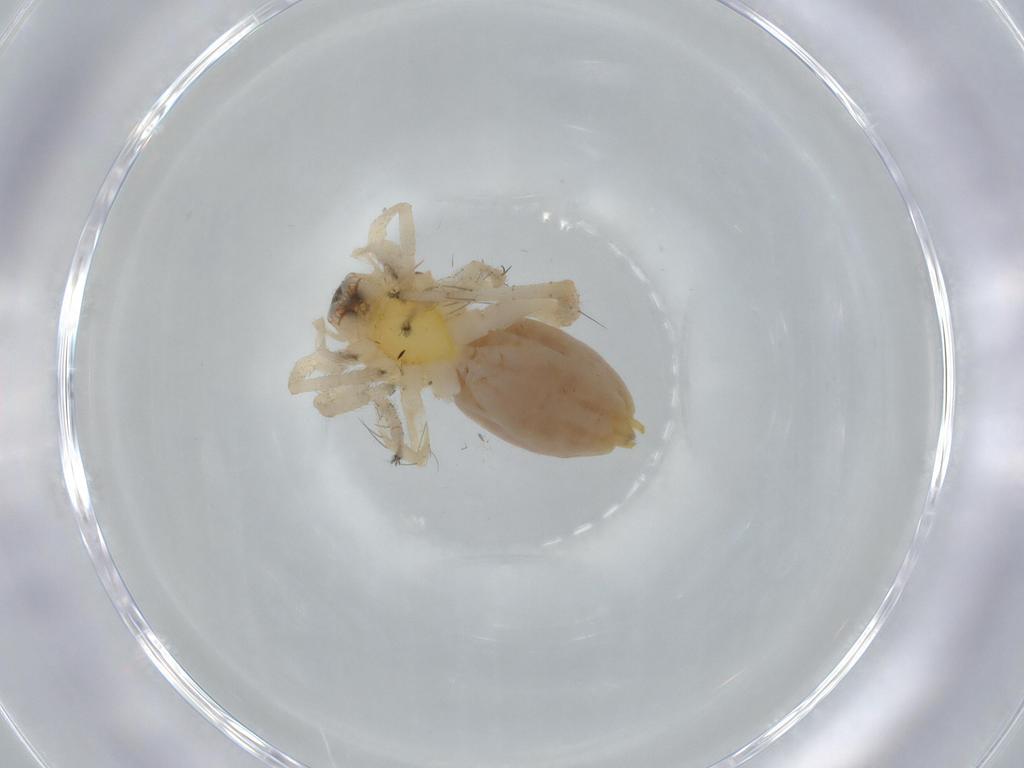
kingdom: Animalia
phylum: Arthropoda
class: Arachnida
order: Araneae
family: Anyphaenidae
